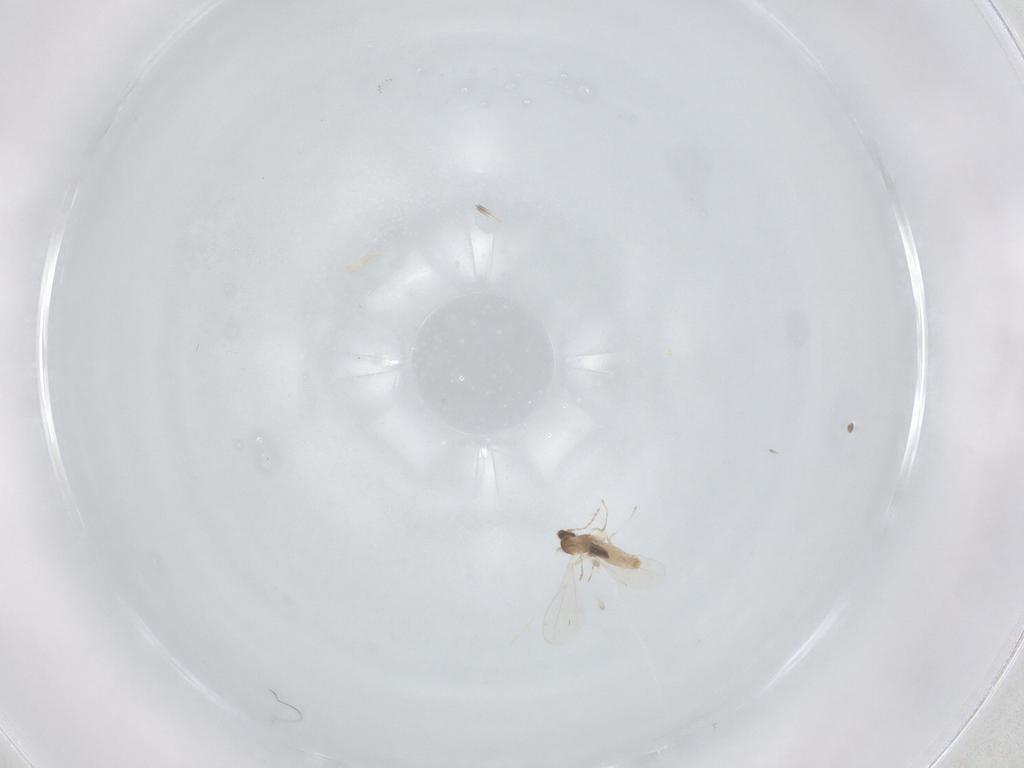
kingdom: Animalia
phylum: Arthropoda
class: Insecta
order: Diptera
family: Cecidomyiidae
